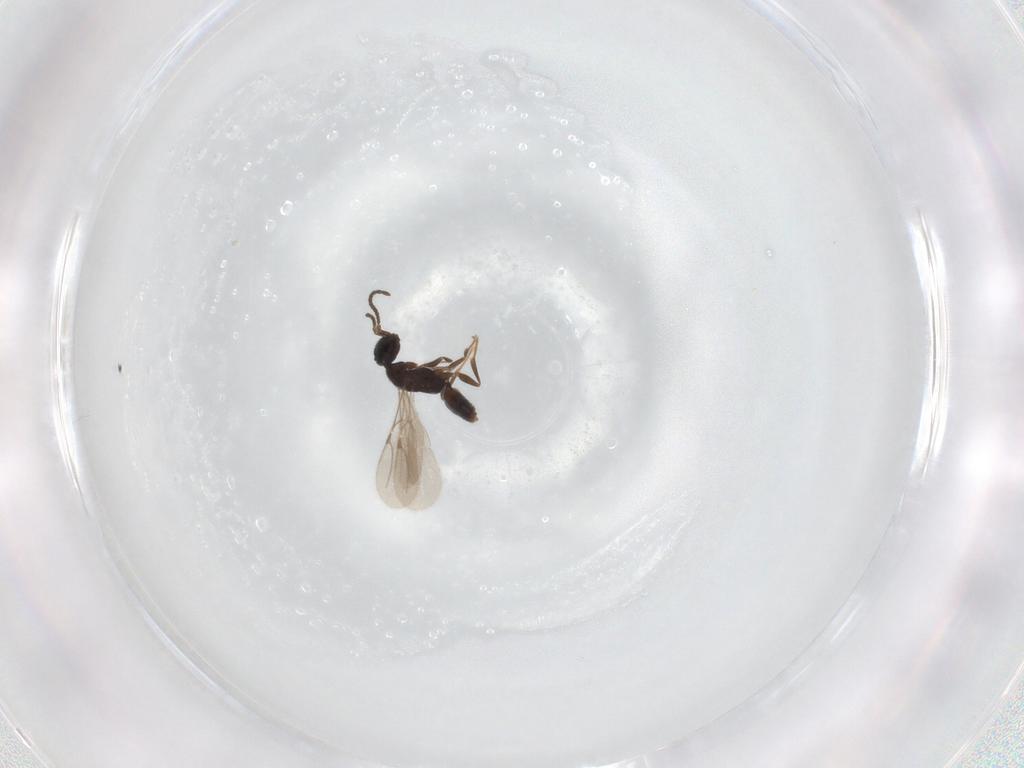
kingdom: Animalia
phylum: Arthropoda
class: Insecta
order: Hymenoptera
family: Bethylidae
